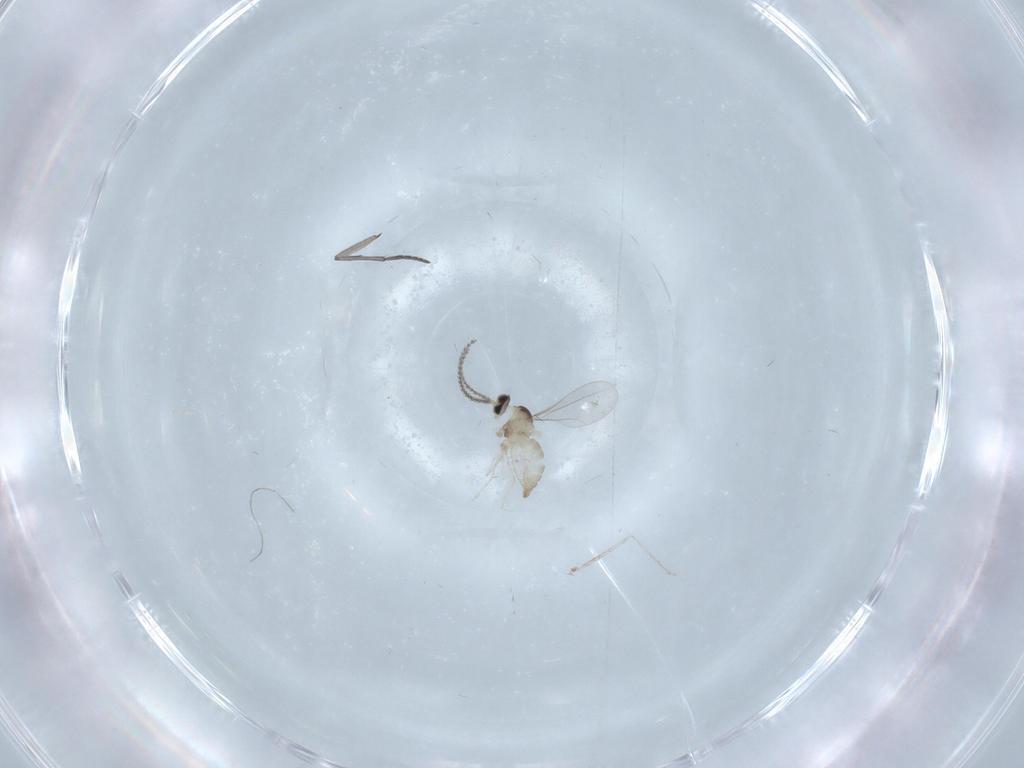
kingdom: Animalia
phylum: Arthropoda
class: Insecta
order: Diptera
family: Cecidomyiidae
